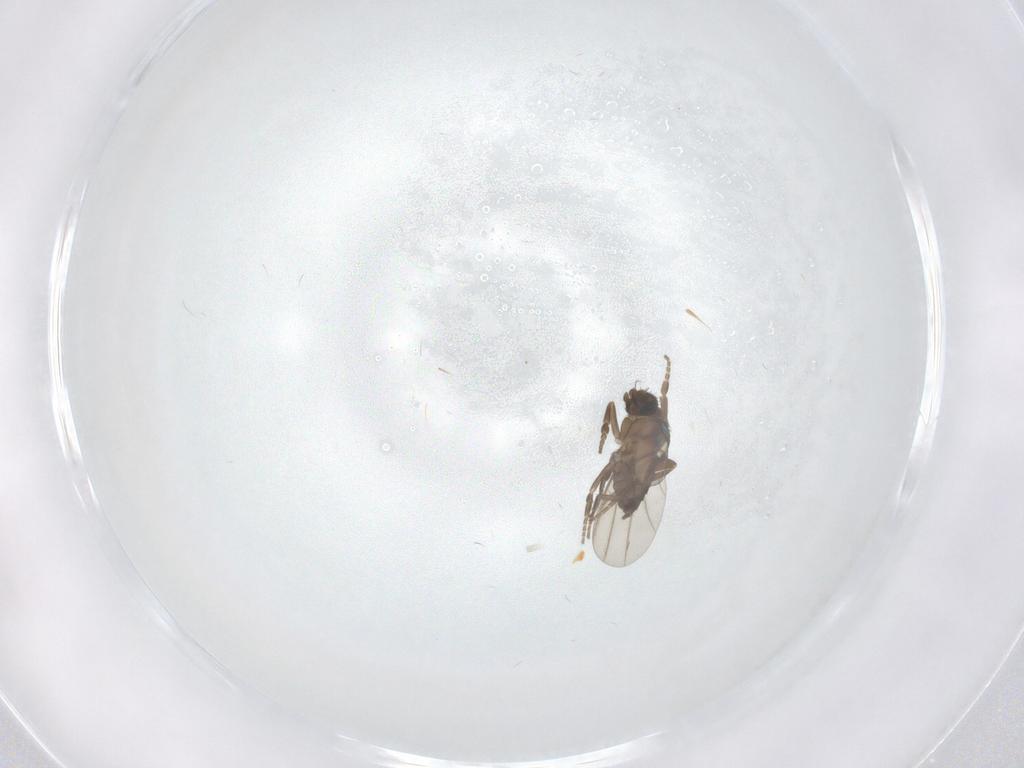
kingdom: Animalia
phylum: Arthropoda
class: Insecta
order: Diptera
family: Phoridae
